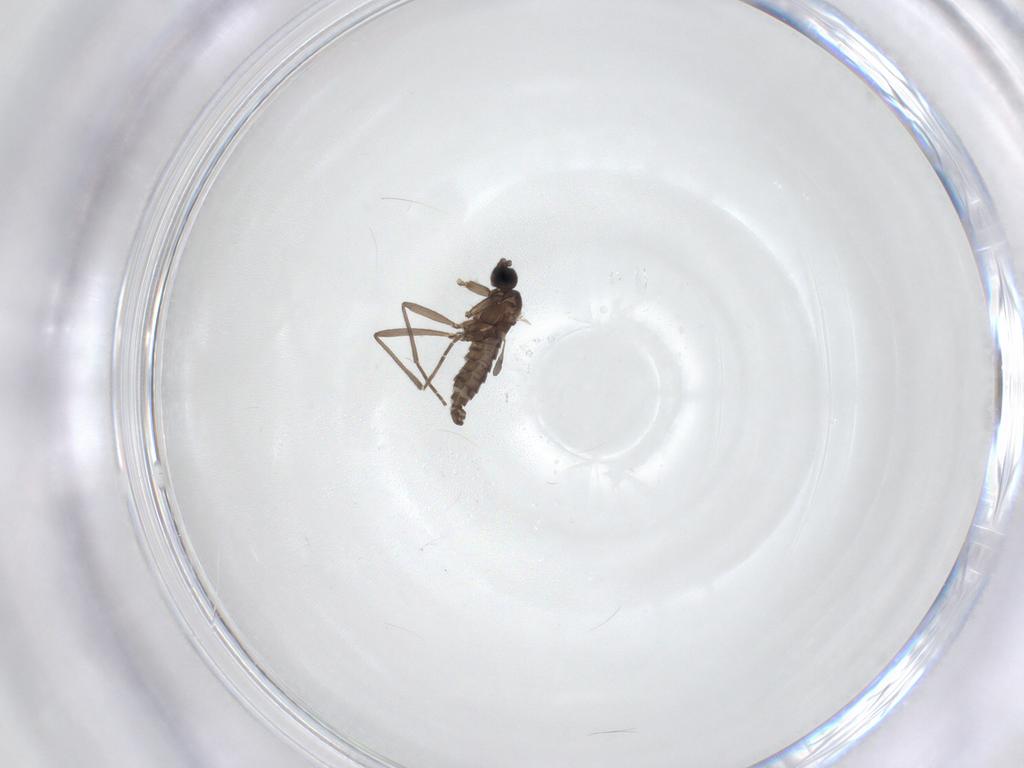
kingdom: Animalia
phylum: Arthropoda
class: Insecta
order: Diptera
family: Sciaridae
